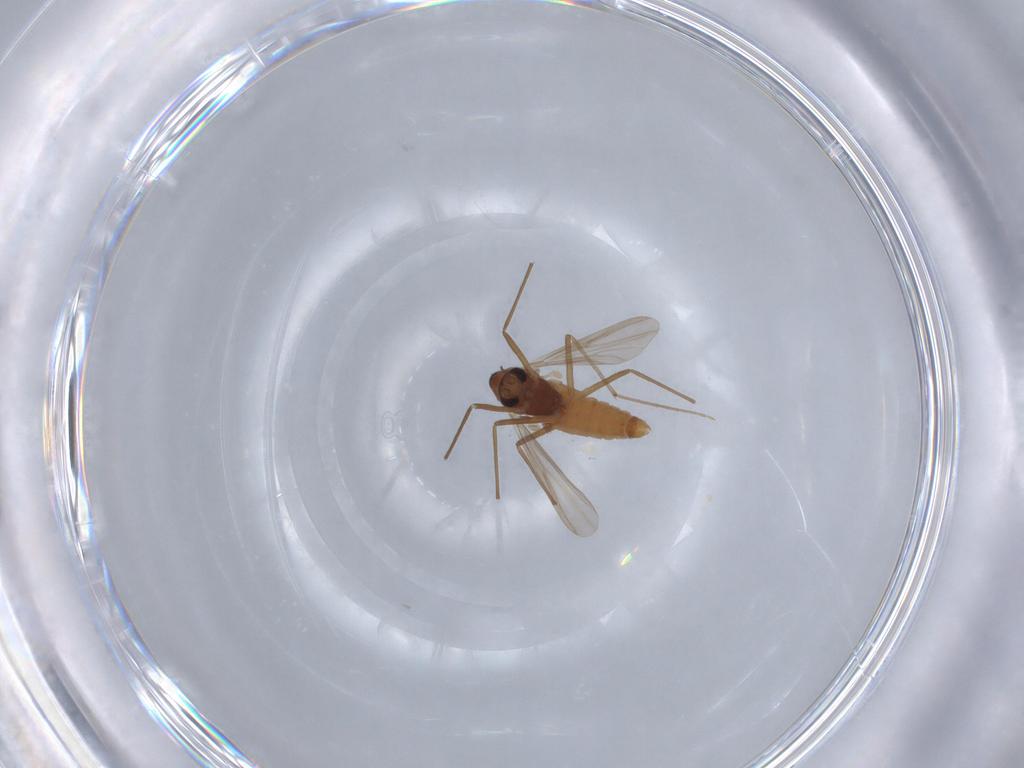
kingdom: Animalia
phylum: Arthropoda
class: Insecta
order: Diptera
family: Chironomidae
